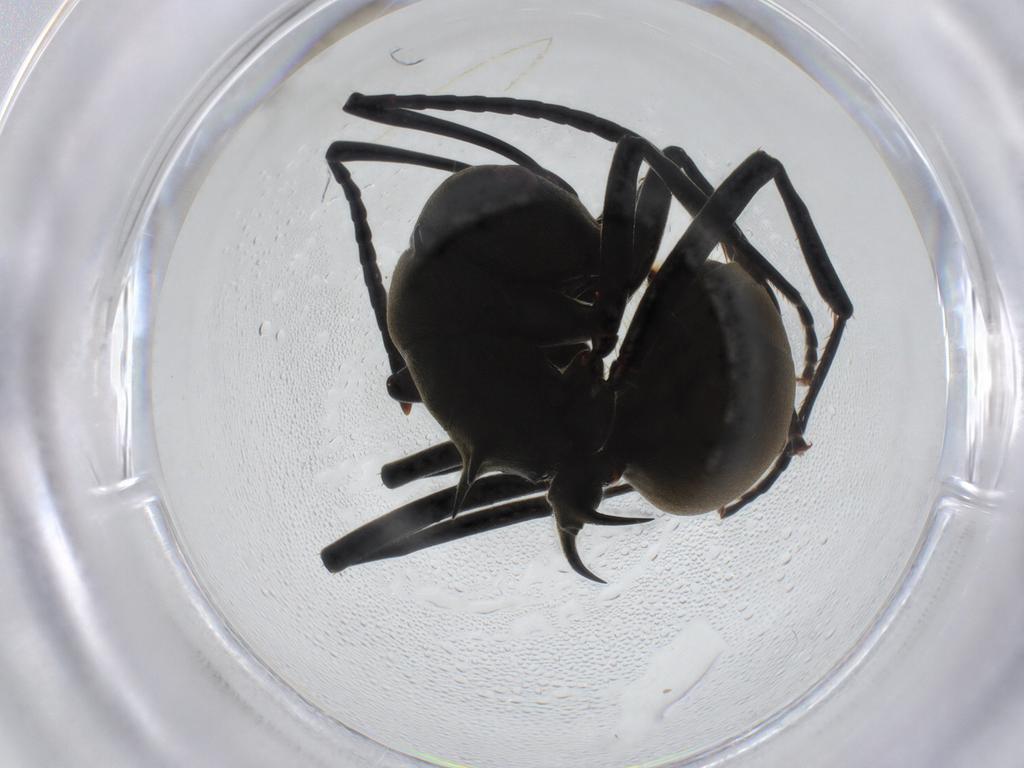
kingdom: Animalia
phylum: Arthropoda
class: Insecta
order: Hymenoptera
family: Formicidae
